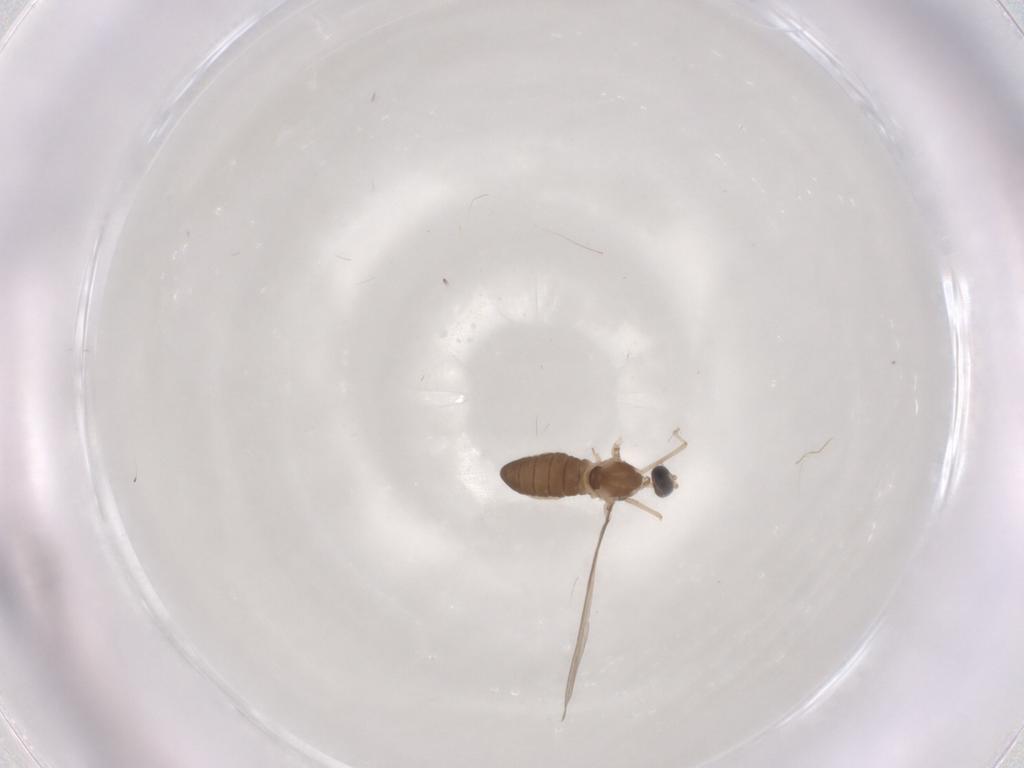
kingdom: Animalia
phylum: Arthropoda
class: Insecta
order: Diptera
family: Cecidomyiidae
